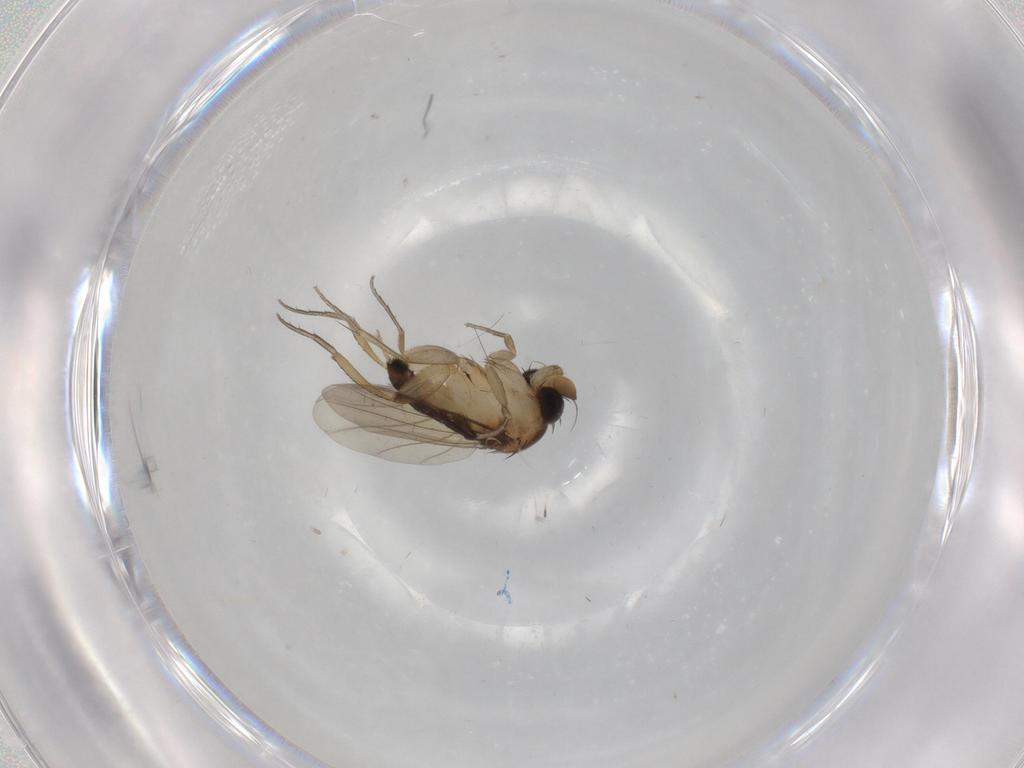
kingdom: Animalia
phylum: Arthropoda
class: Insecta
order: Diptera
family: Phoridae
